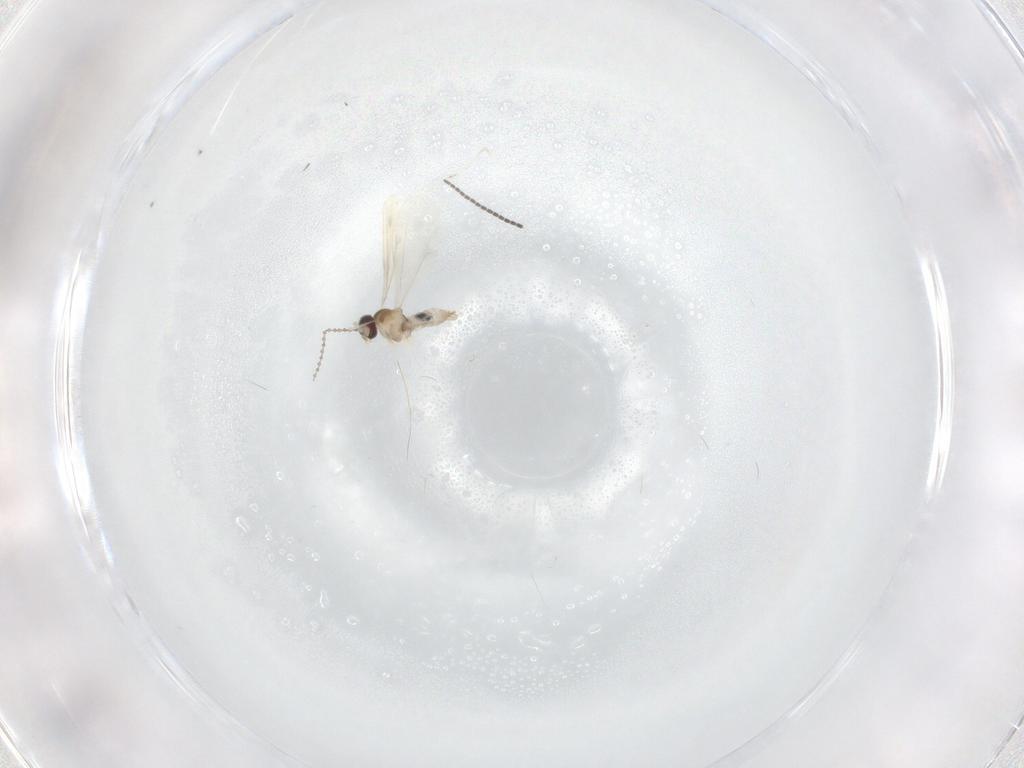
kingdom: Animalia
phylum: Arthropoda
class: Insecta
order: Diptera
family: Cecidomyiidae
